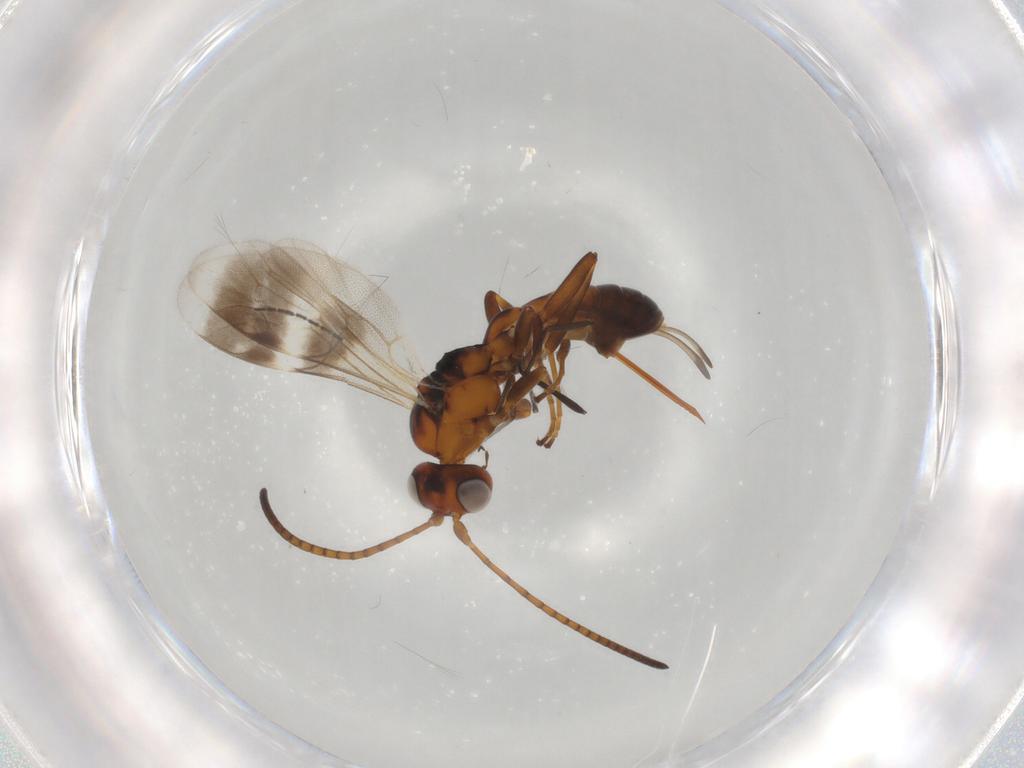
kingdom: Animalia
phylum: Arthropoda
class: Insecta
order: Hymenoptera
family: Ichneumonidae
